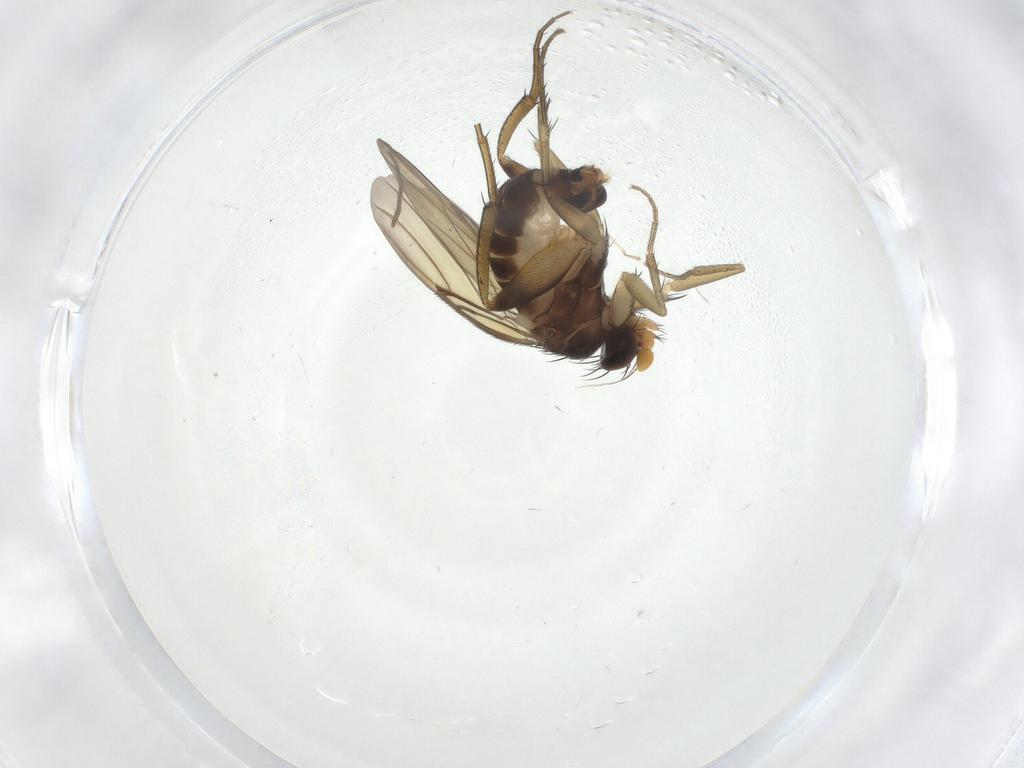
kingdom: Animalia
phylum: Arthropoda
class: Insecta
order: Diptera
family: Phoridae
